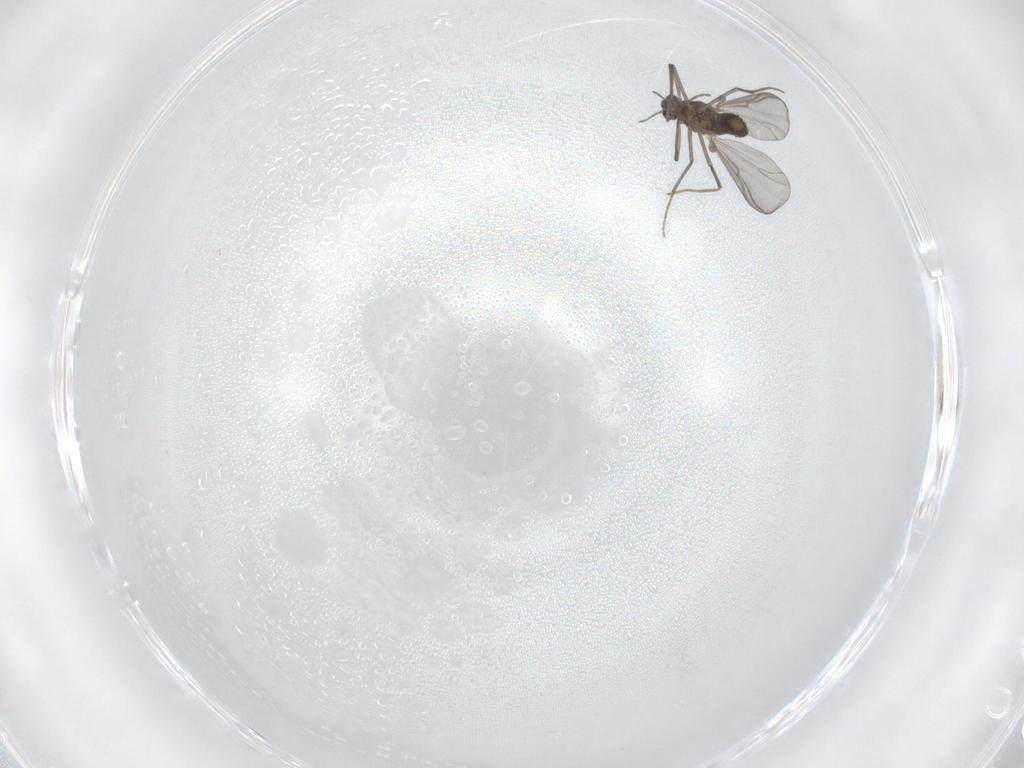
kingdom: Animalia
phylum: Arthropoda
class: Insecta
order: Diptera
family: Chironomidae
